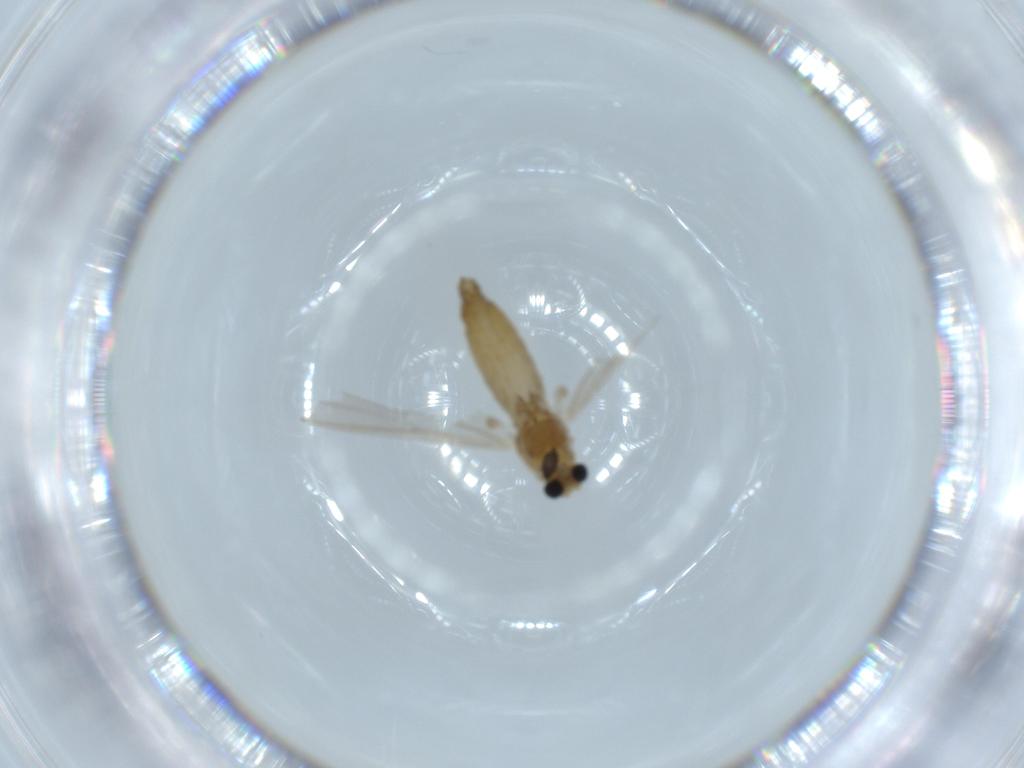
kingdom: Animalia
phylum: Arthropoda
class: Insecta
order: Diptera
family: Chironomidae
